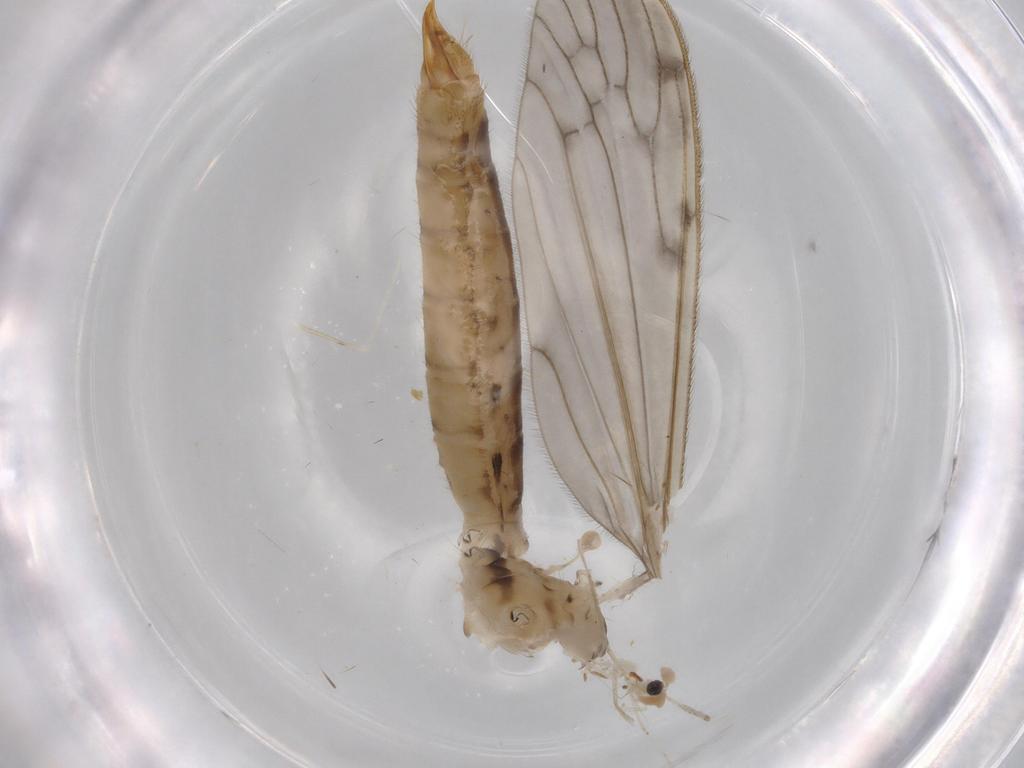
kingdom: Animalia
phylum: Arthropoda
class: Insecta
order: Diptera
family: Limoniidae
